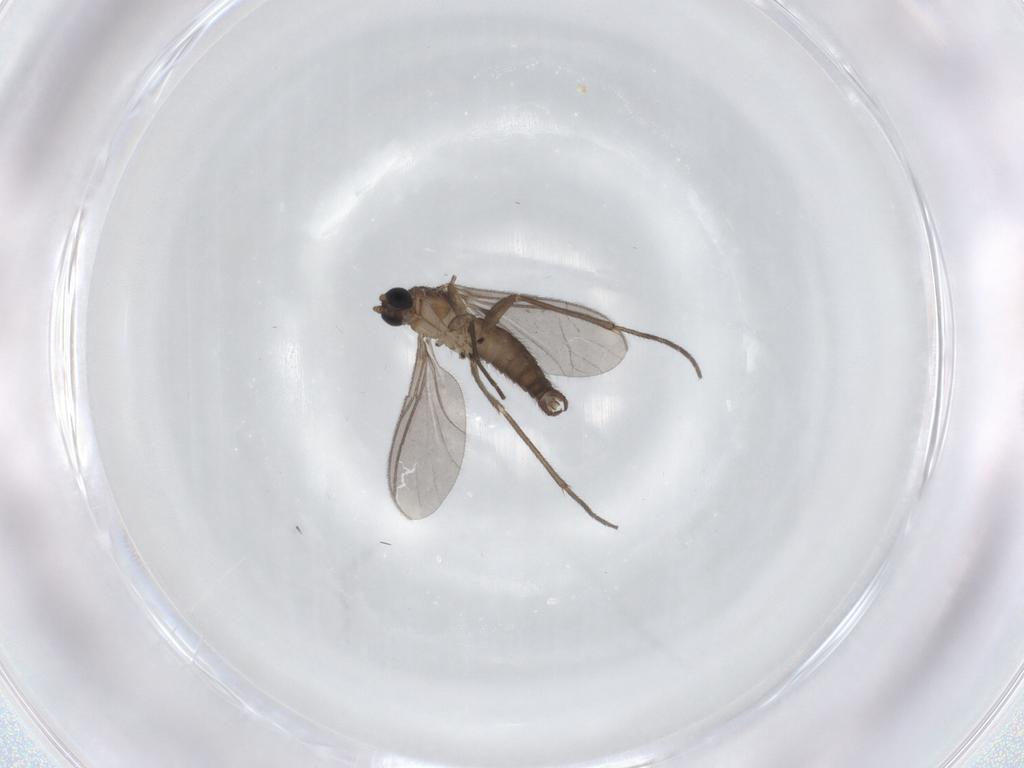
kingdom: Animalia
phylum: Arthropoda
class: Insecta
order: Diptera
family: Sciaridae
